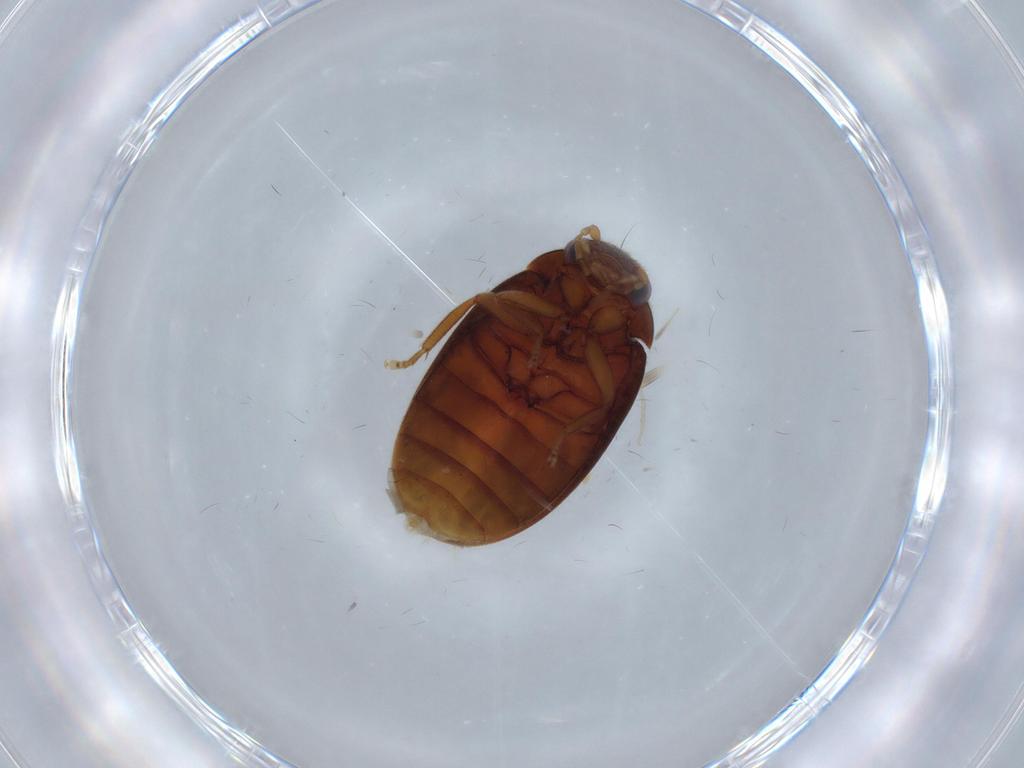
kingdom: Animalia
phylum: Arthropoda
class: Insecta
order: Coleoptera
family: Scirtidae
